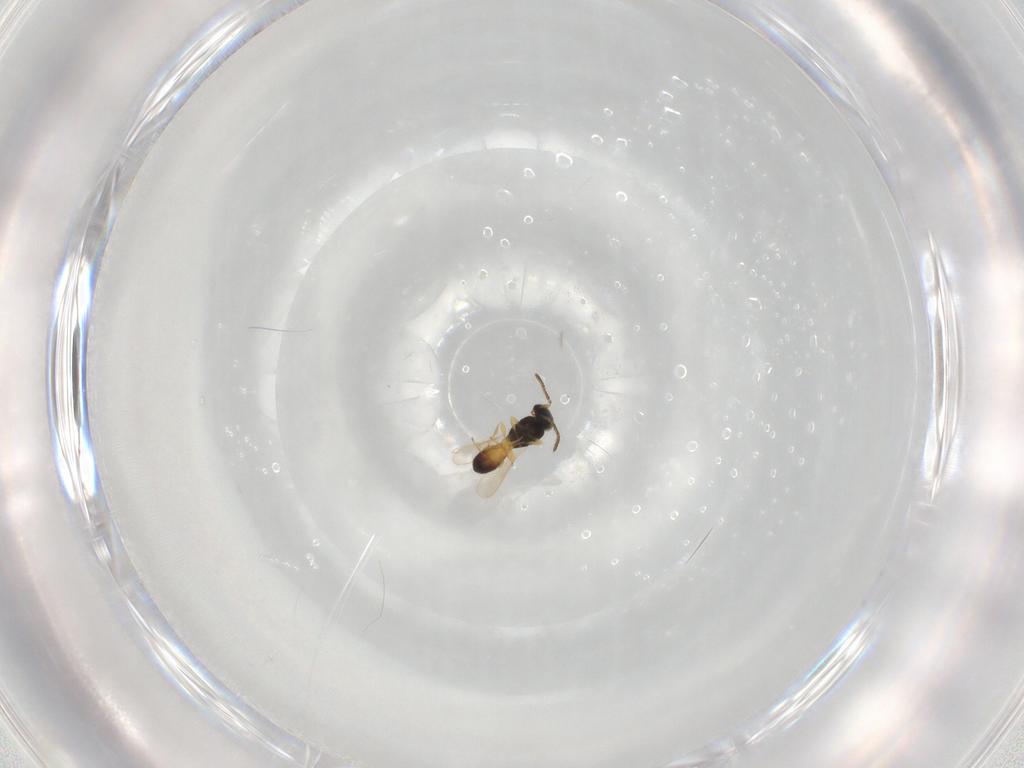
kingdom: Animalia
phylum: Arthropoda
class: Insecta
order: Hymenoptera
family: Scelionidae
